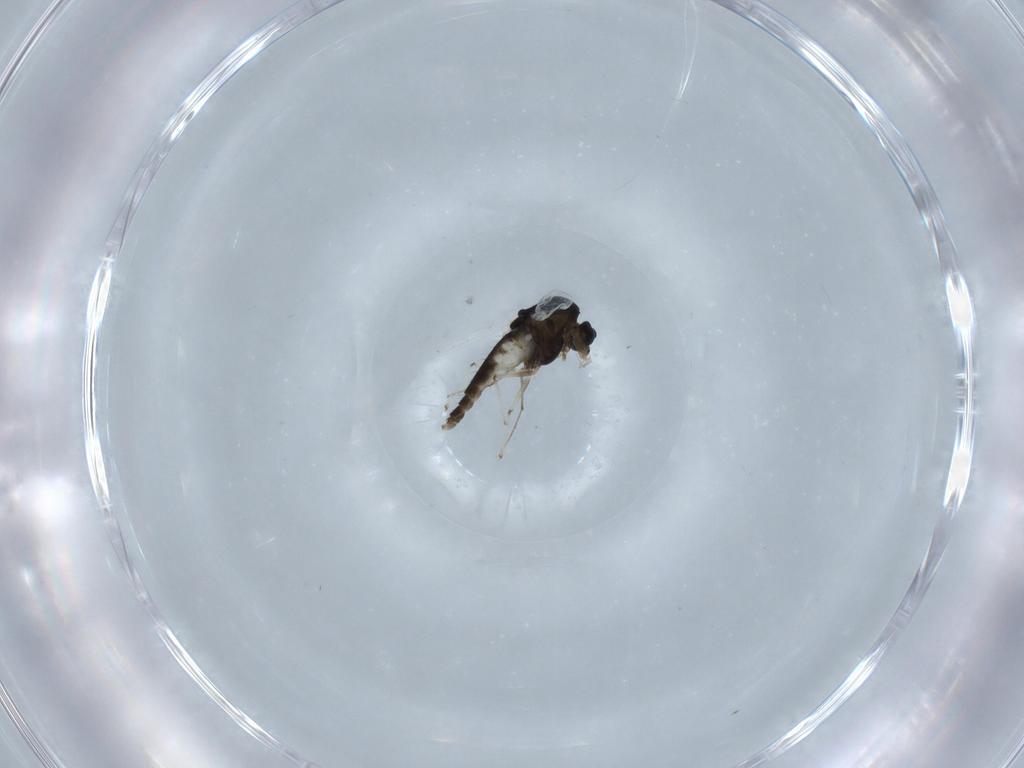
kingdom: Animalia
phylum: Arthropoda
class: Insecta
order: Diptera
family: Chironomidae
